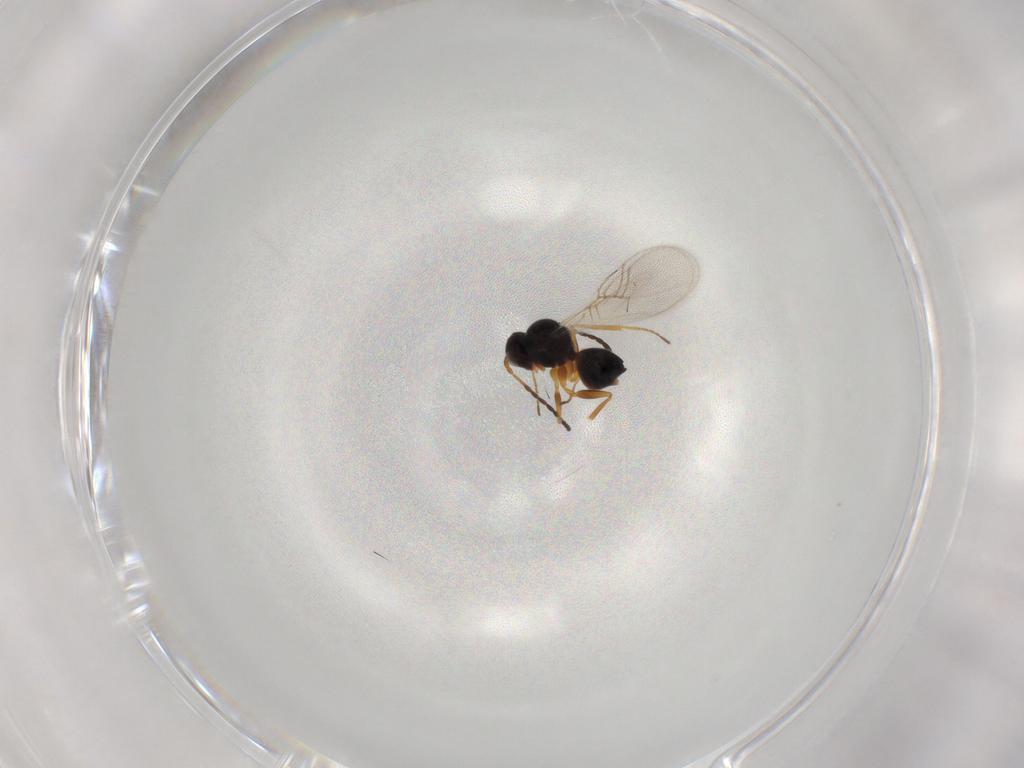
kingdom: Animalia
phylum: Arthropoda
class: Insecta
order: Hymenoptera
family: Figitidae
